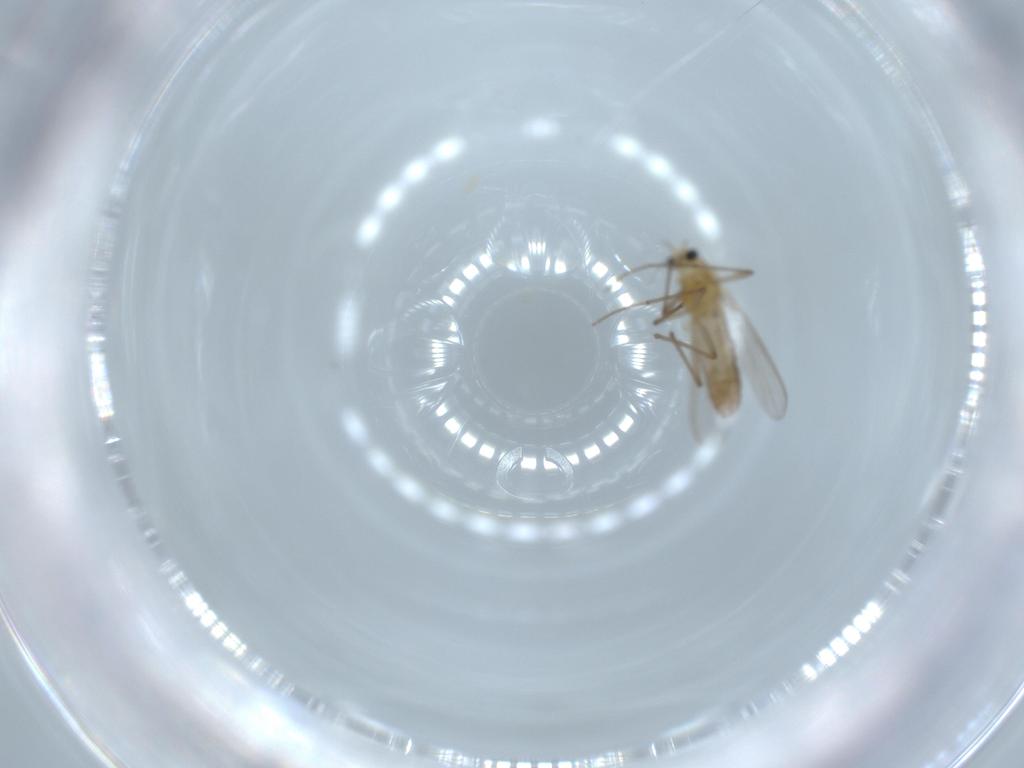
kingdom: Animalia
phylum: Arthropoda
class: Insecta
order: Diptera
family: Chironomidae
